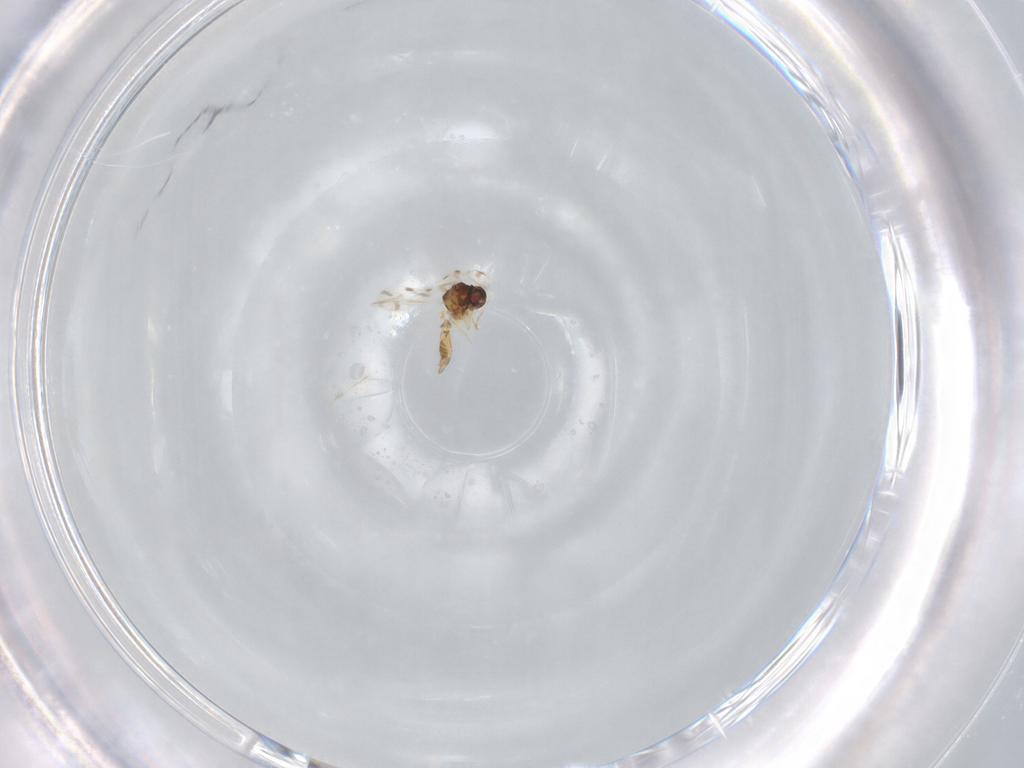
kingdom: Animalia
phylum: Arthropoda
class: Insecta
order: Hemiptera
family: Aleyrodidae
